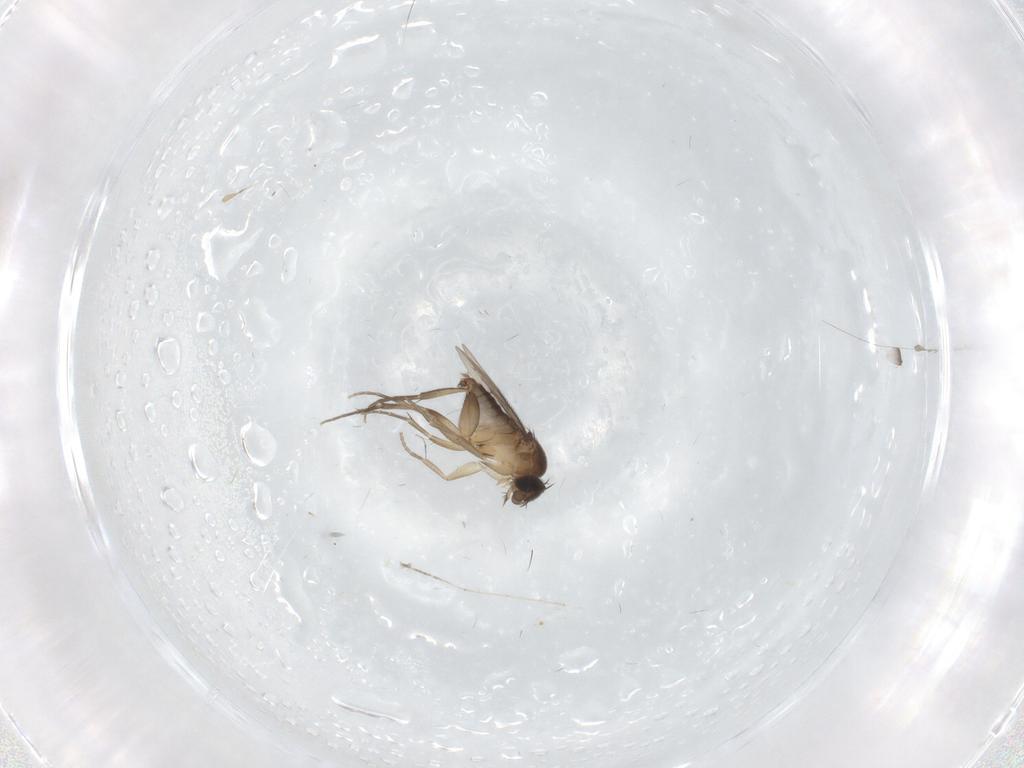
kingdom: Animalia
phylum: Arthropoda
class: Insecta
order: Diptera
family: Cecidomyiidae
